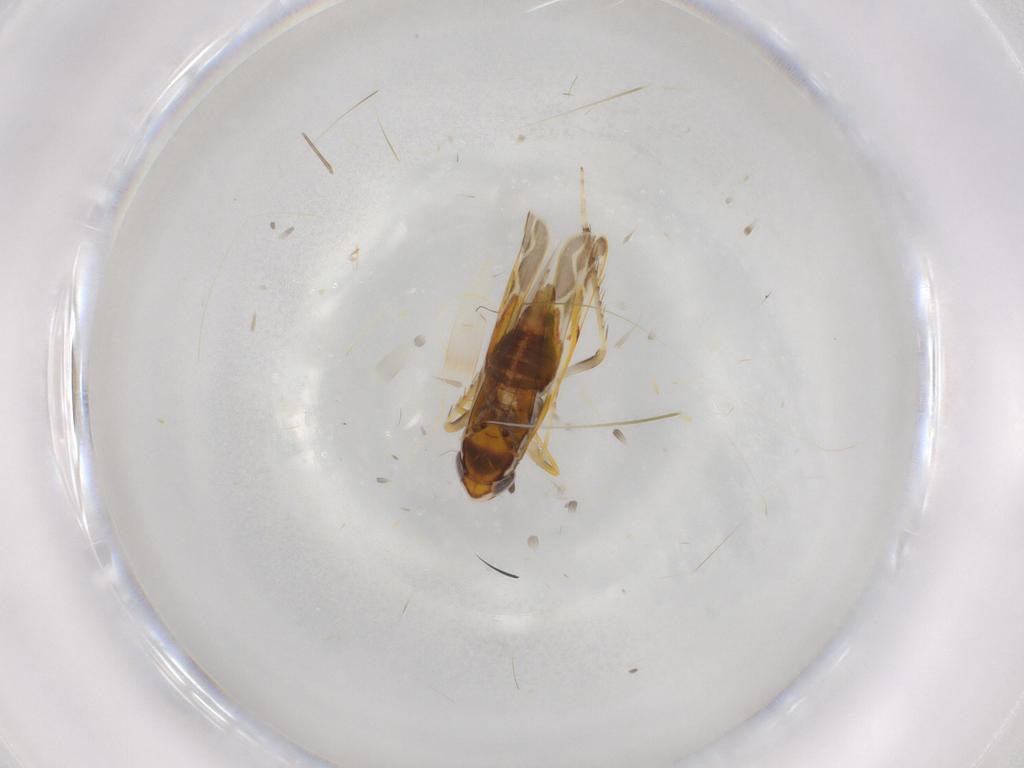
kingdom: Animalia
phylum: Arthropoda
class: Insecta
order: Hemiptera
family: Cicadellidae
